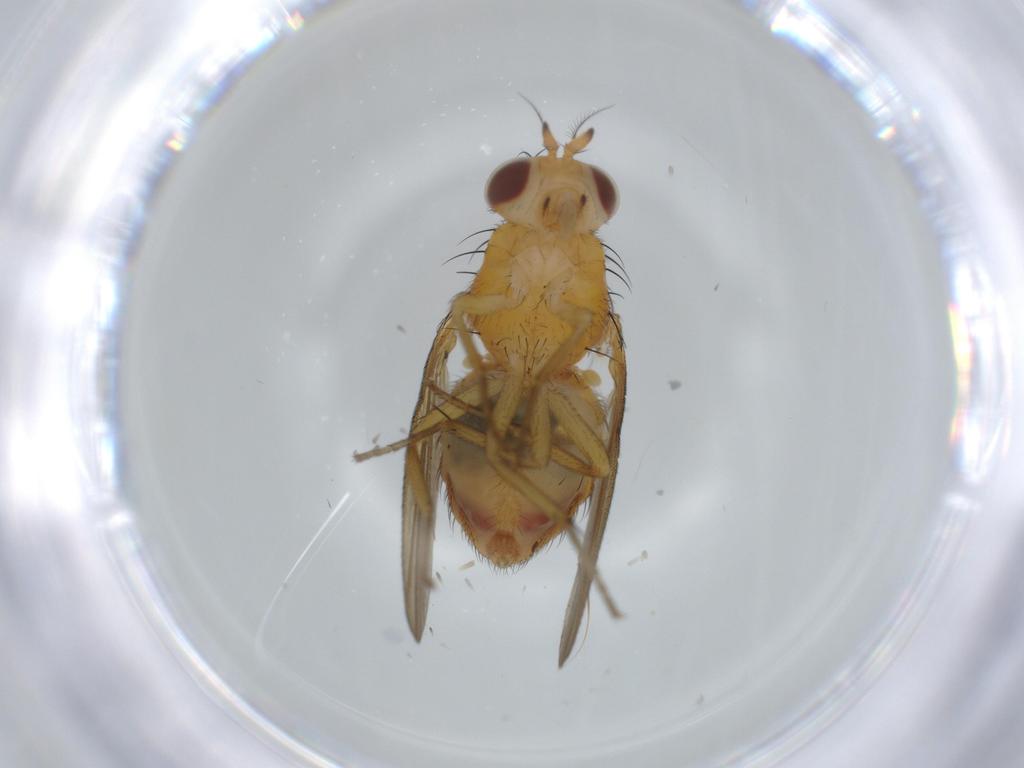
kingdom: Animalia
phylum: Arthropoda
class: Insecta
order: Diptera
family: Lauxaniidae
